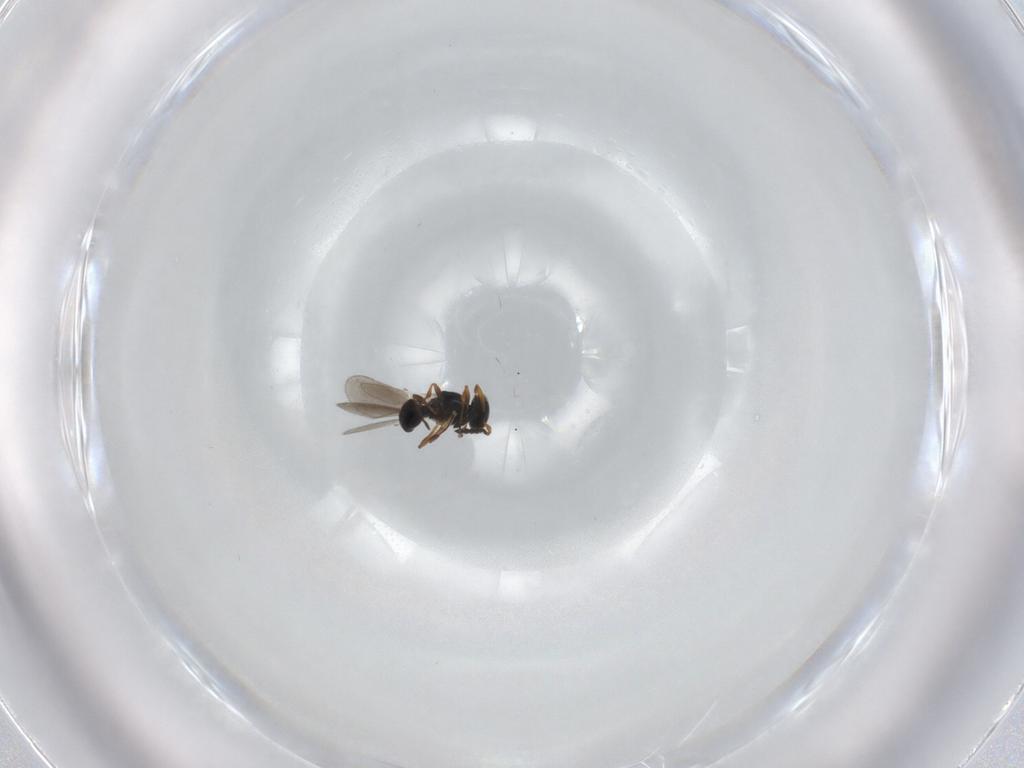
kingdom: Animalia
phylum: Arthropoda
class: Insecta
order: Hymenoptera
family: Platygastridae
